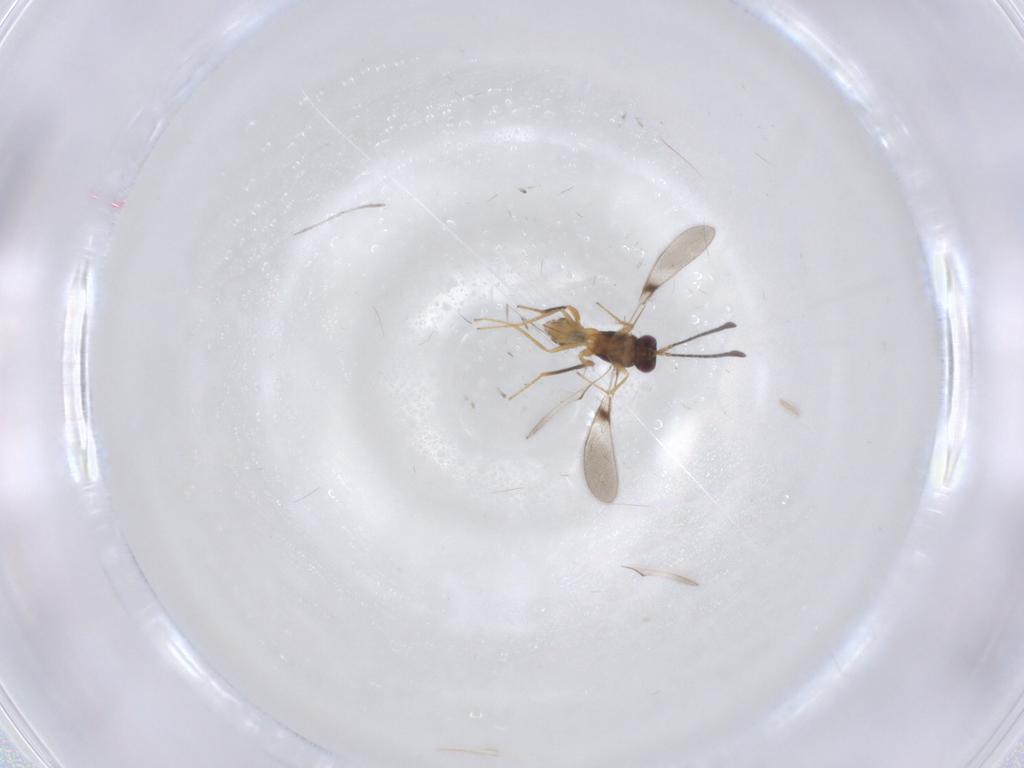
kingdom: Animalia
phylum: Arthropoda
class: Insecta
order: Hymenoptera
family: Mymaridae
